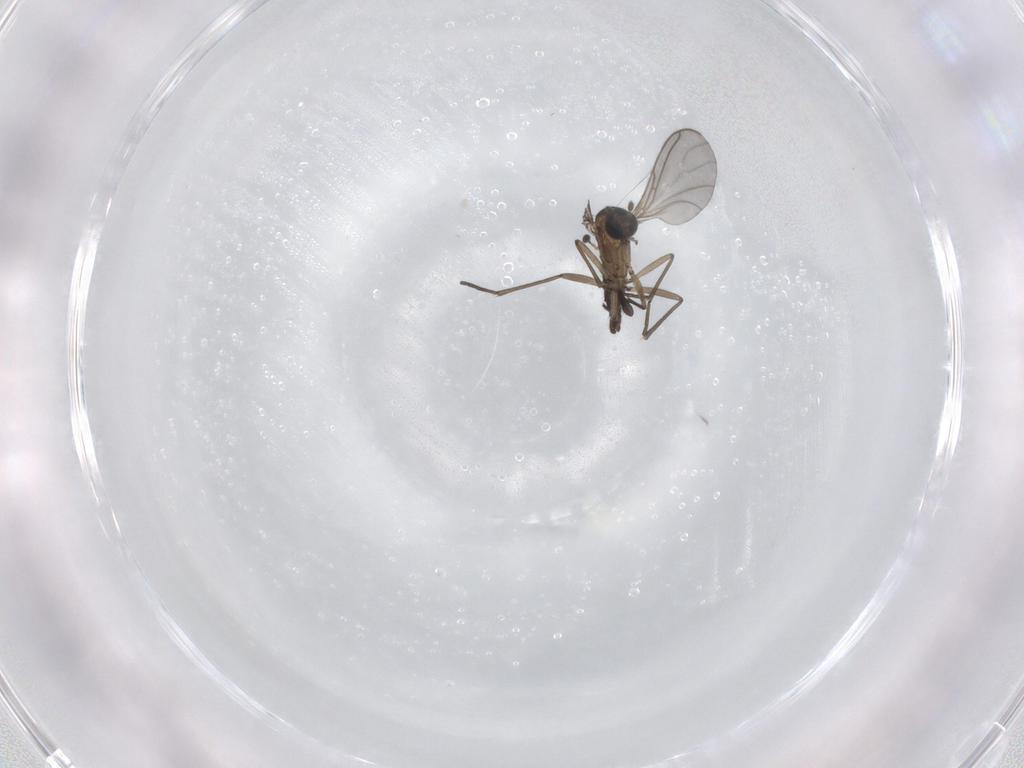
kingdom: Animalia
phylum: Arthropoda
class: Insecta
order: Diptera
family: Sciaridae
